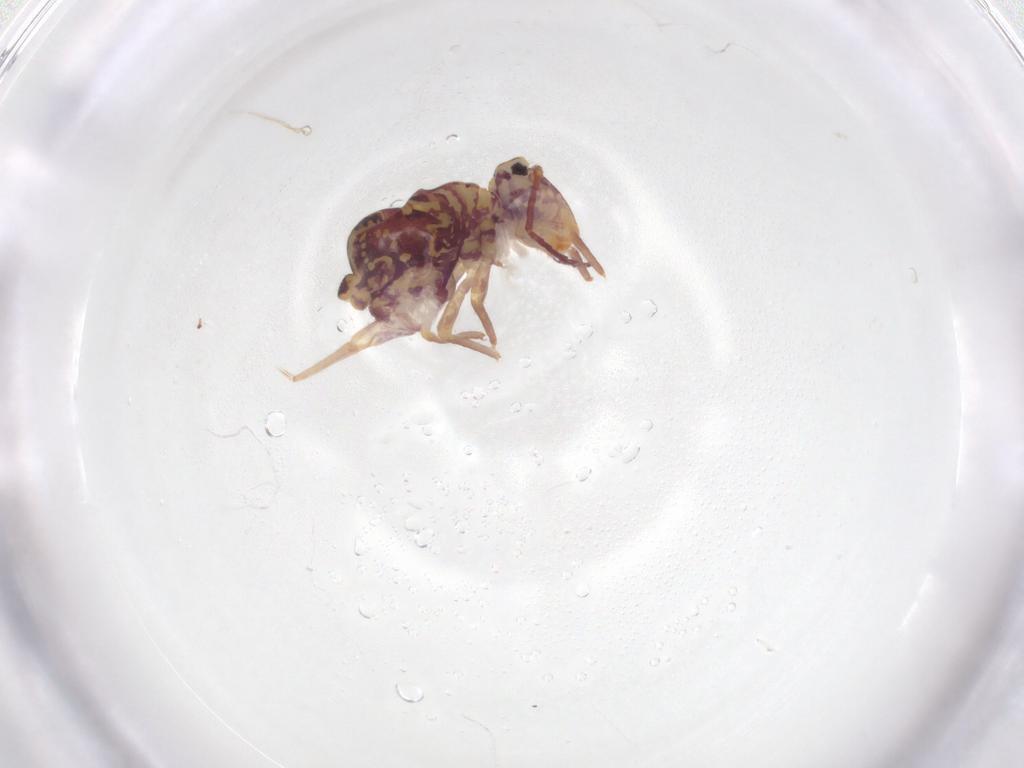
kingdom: Animalia
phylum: Arthropoda
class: Collembola
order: Symphypleona
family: Dicyrtomidae
